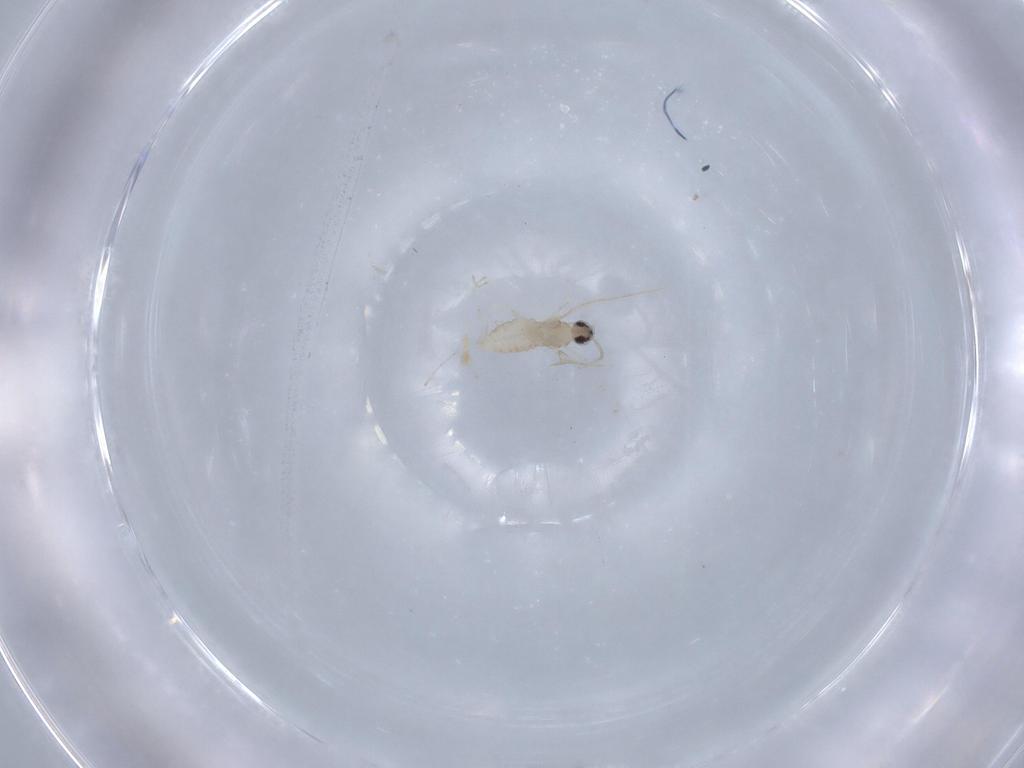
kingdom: Animalia
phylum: Arthropoda
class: Insecta
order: Diptera
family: Cecidomyiidae
